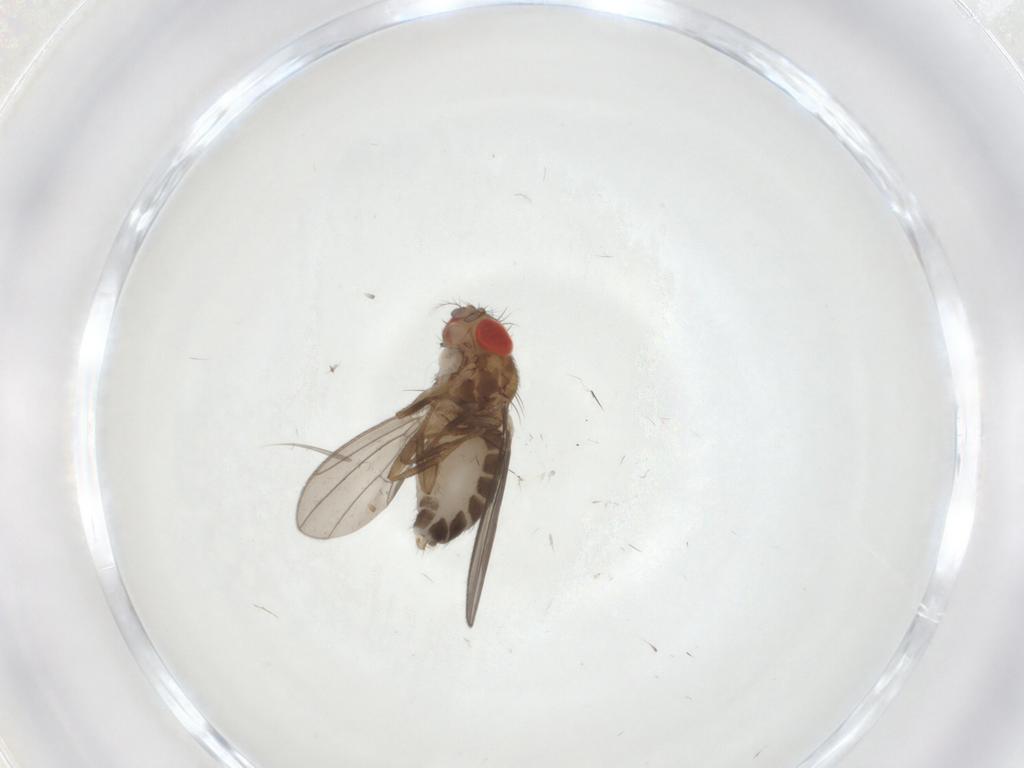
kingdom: Animalia
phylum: Arthropoda
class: Insecta
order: Diptera
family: Drosophilidae
